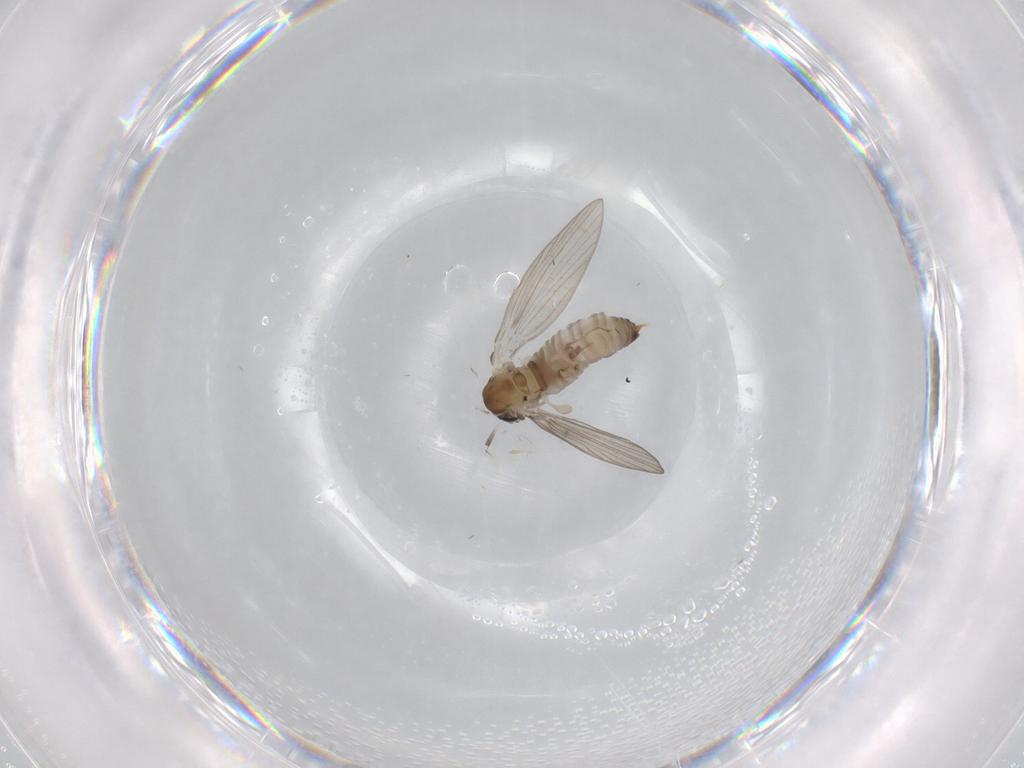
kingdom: Animalia
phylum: Arthropoda
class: Insecta
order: Diptera
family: Psychodidae
